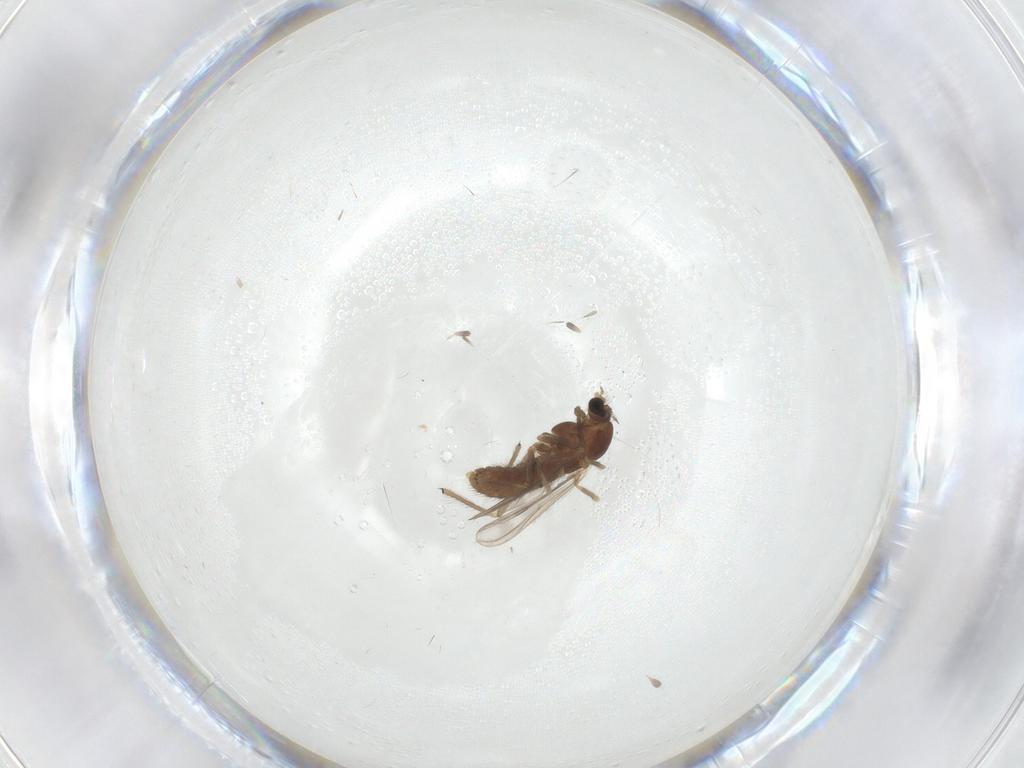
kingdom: Animalia
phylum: Arthropoda
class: Insecta
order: Diptera
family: Chironomidae
